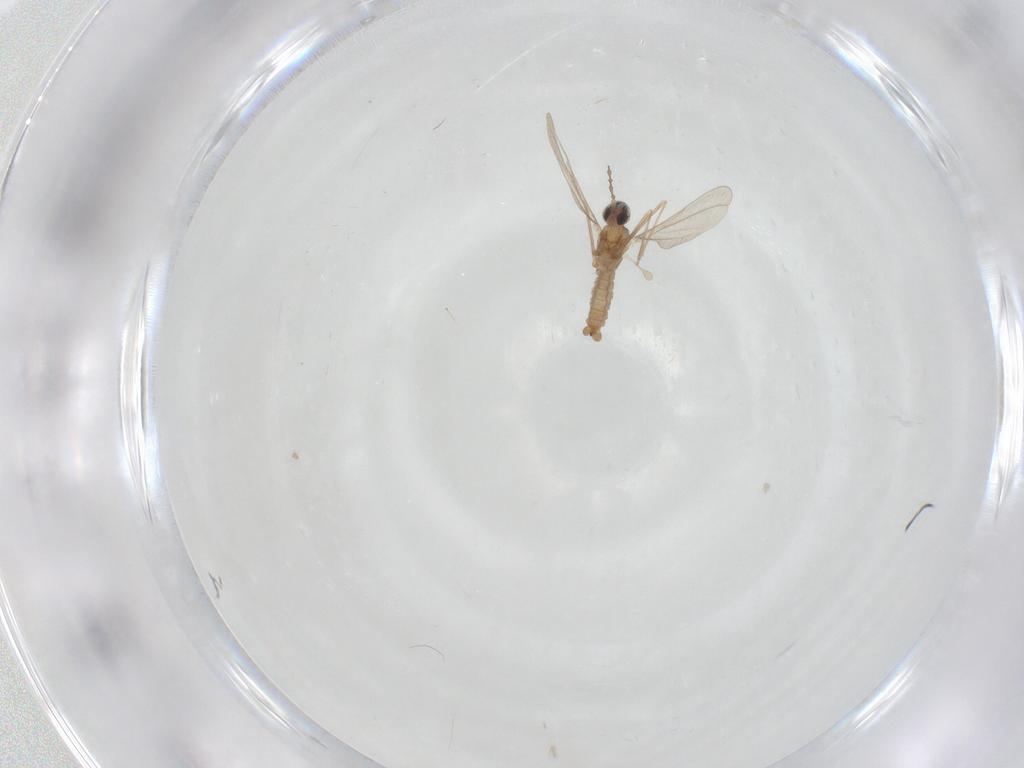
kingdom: Animalia
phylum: Arthropoda
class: Insecta
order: Diptera
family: Cecidomyiidae
